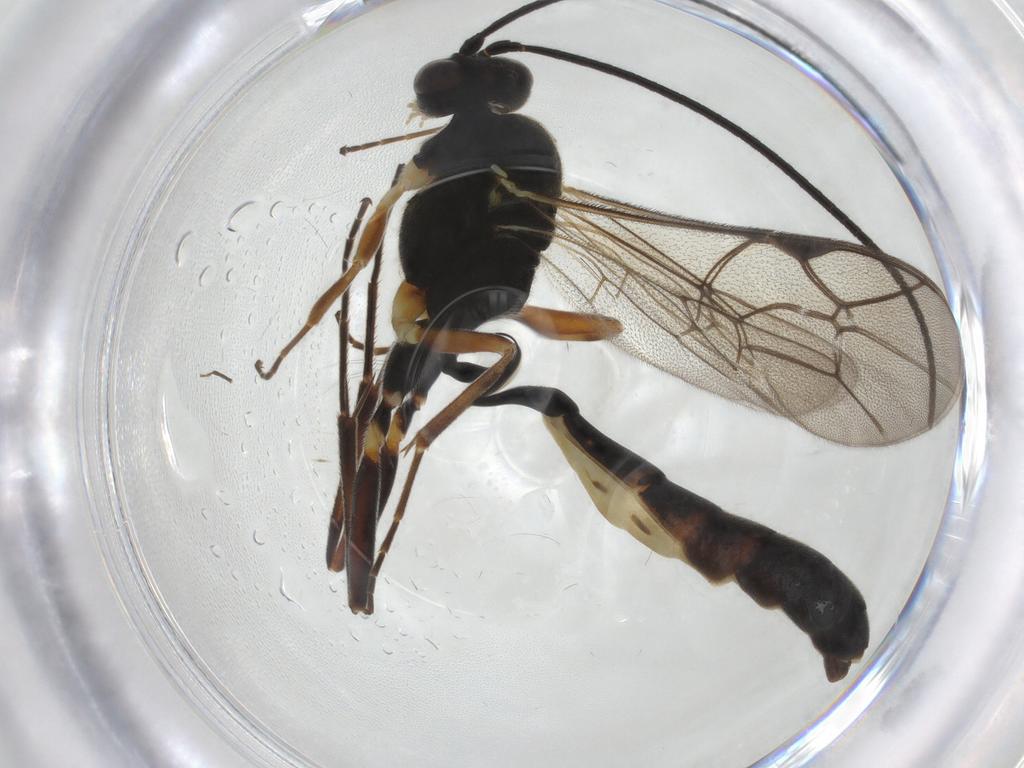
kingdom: Animalia
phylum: Arthropoda
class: Insecta
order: Hymenoptera
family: Ichneumonidae
